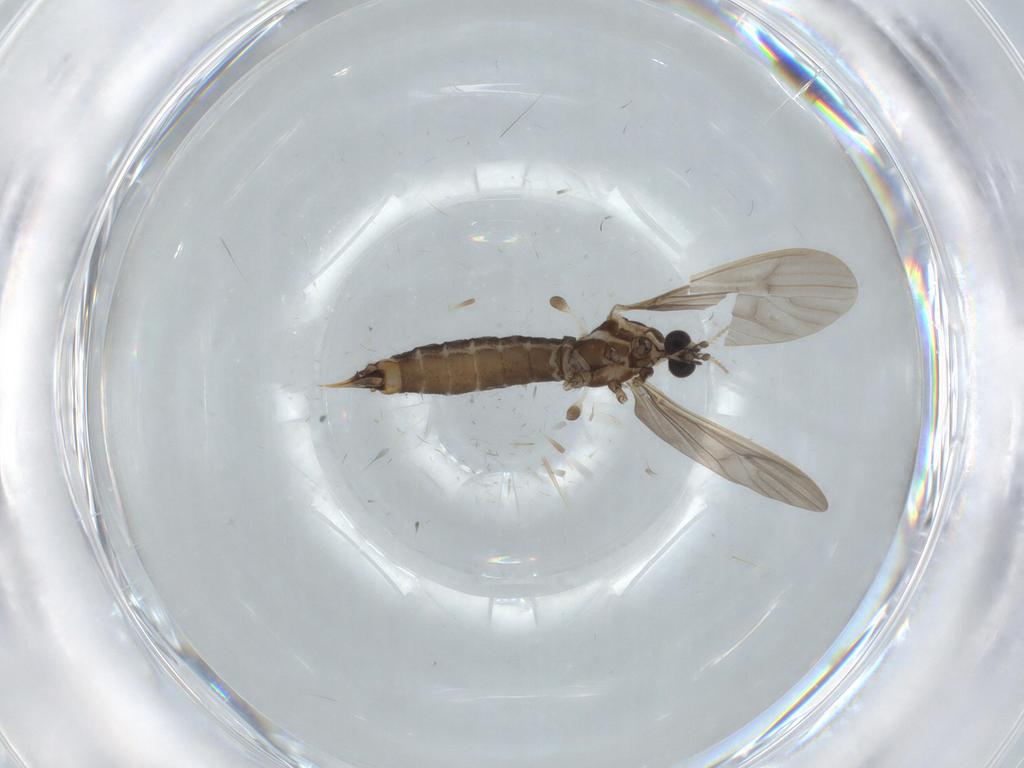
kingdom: Animalia
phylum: Arthropoda
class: Insecta
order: Diptera
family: Limoniidae
